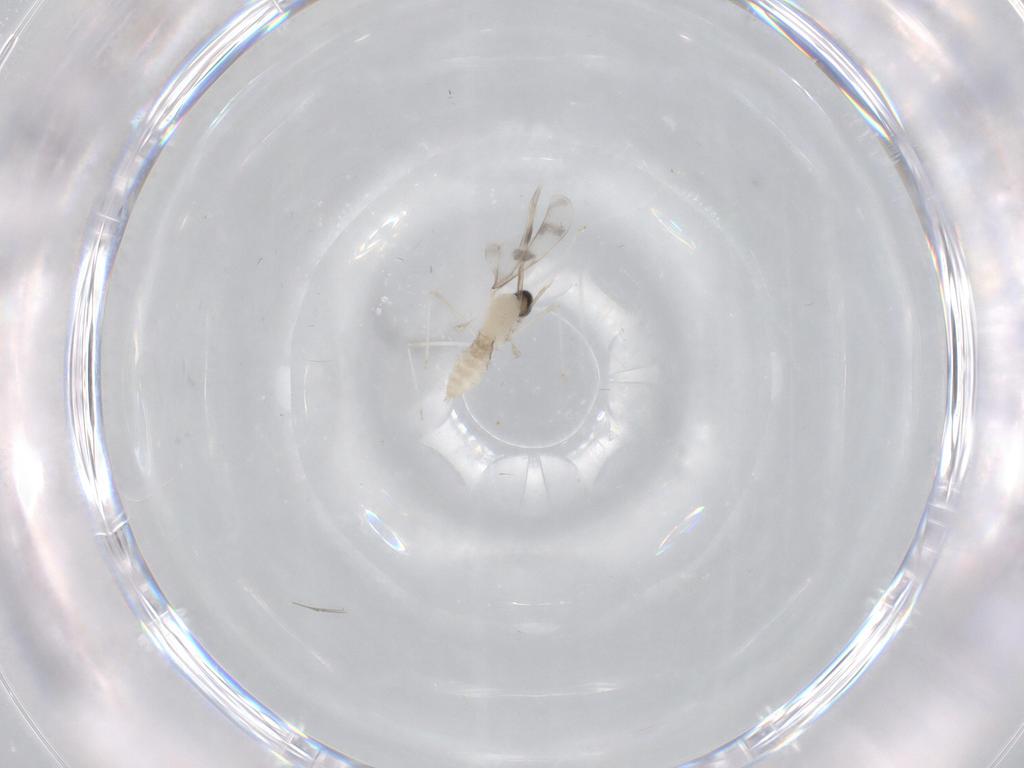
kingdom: Animalia
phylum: Arthropoda
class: Insecta
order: Diptera
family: Cecidomyiidae
